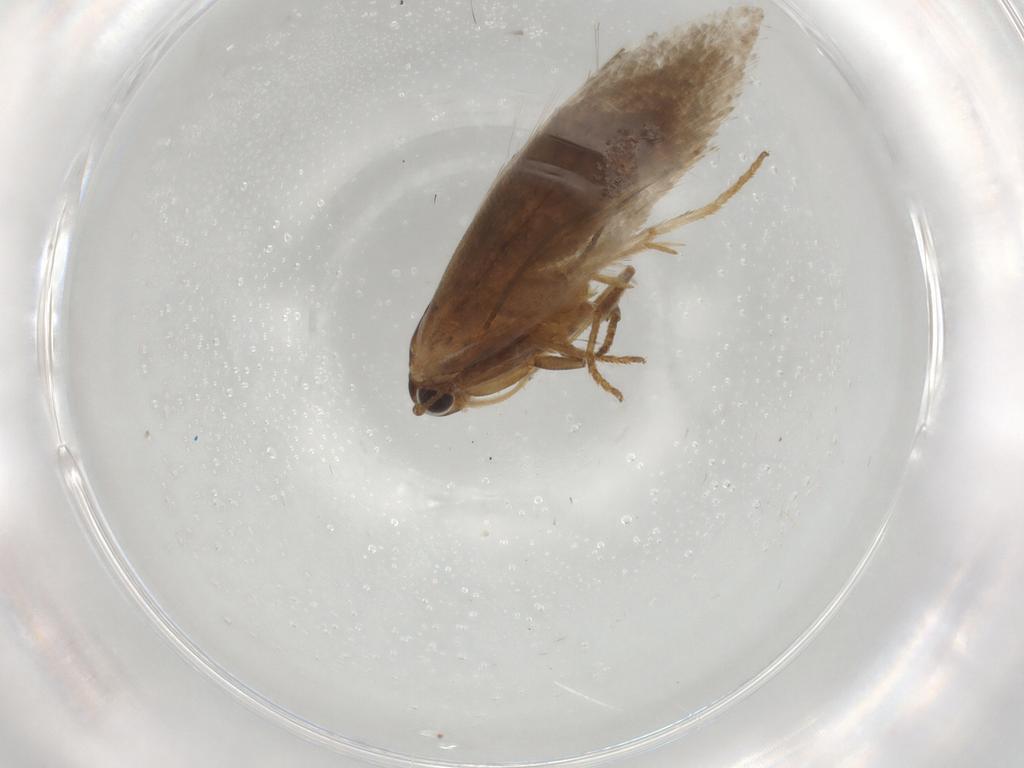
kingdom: Animalia
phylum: Arthropoda
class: Insecta
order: Lepidoptera
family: Oecophoridae
